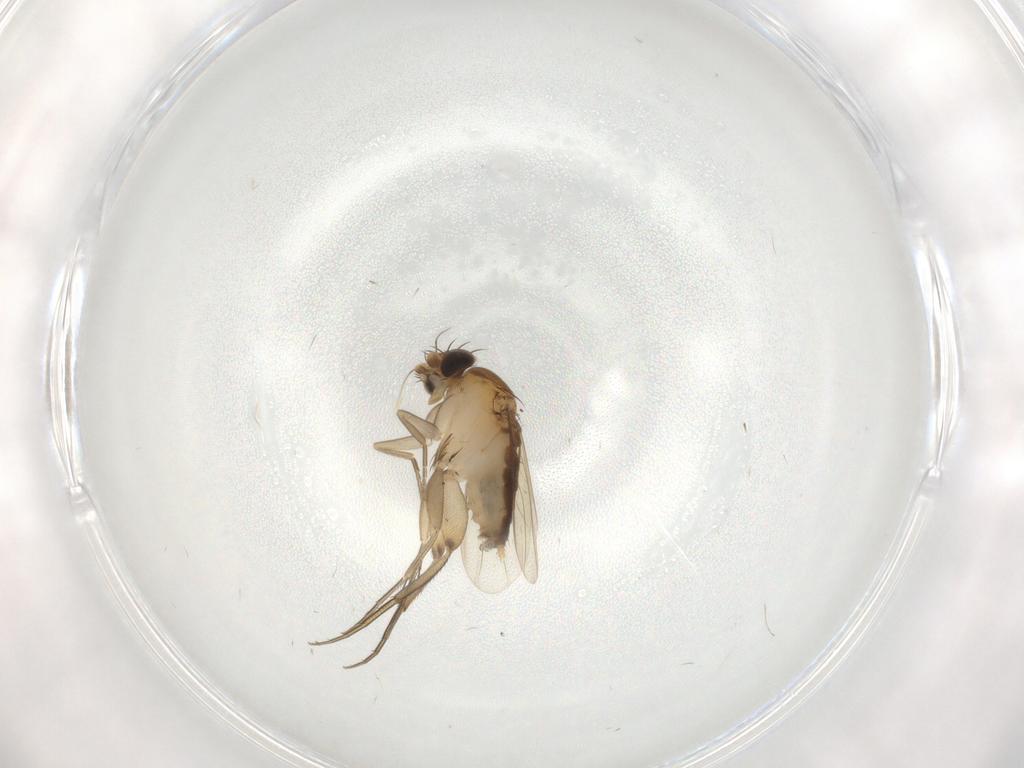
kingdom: Animalia
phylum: Arthropoda
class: Insecta
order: Diptera
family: Phoridae
